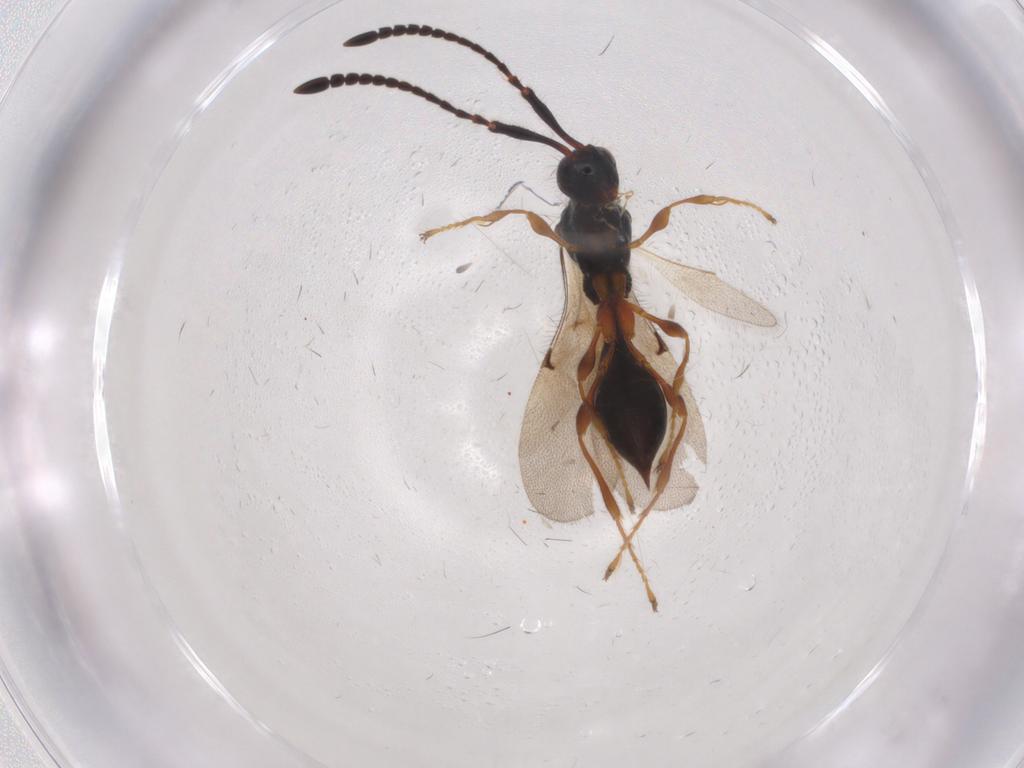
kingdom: Animalia
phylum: Arthropoda
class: Insecta
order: Hymenoptera
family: Diapriidae
